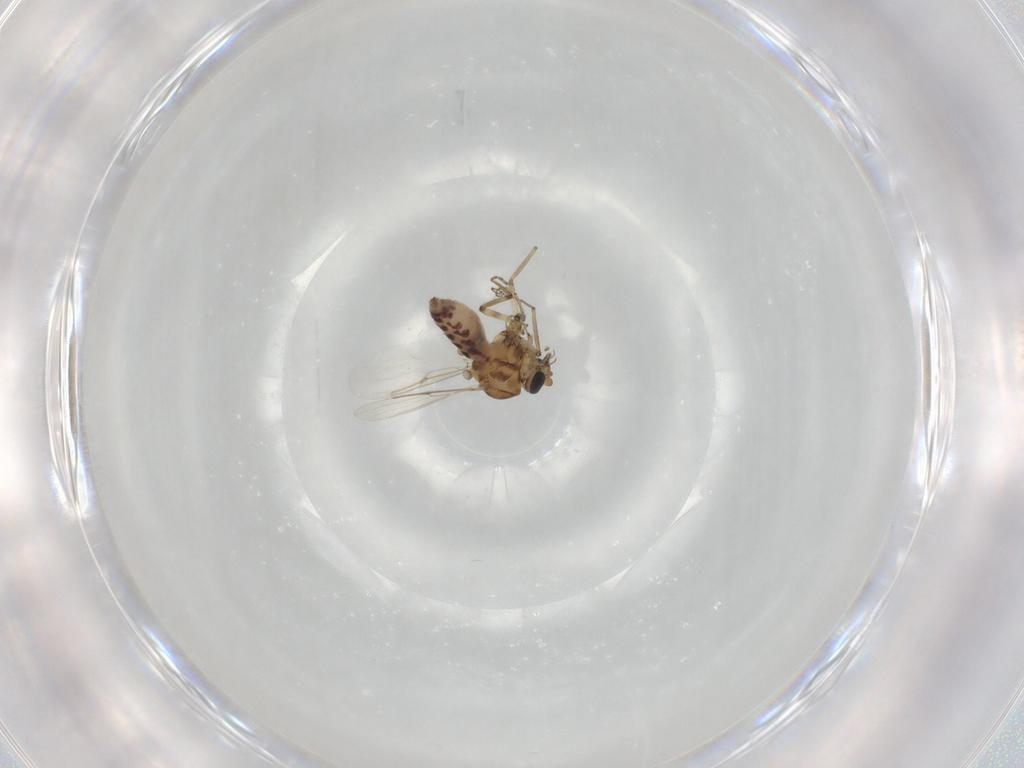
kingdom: Animalia
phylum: Arthropoda
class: Insecta
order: Diptera
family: Ceratopogonidae
